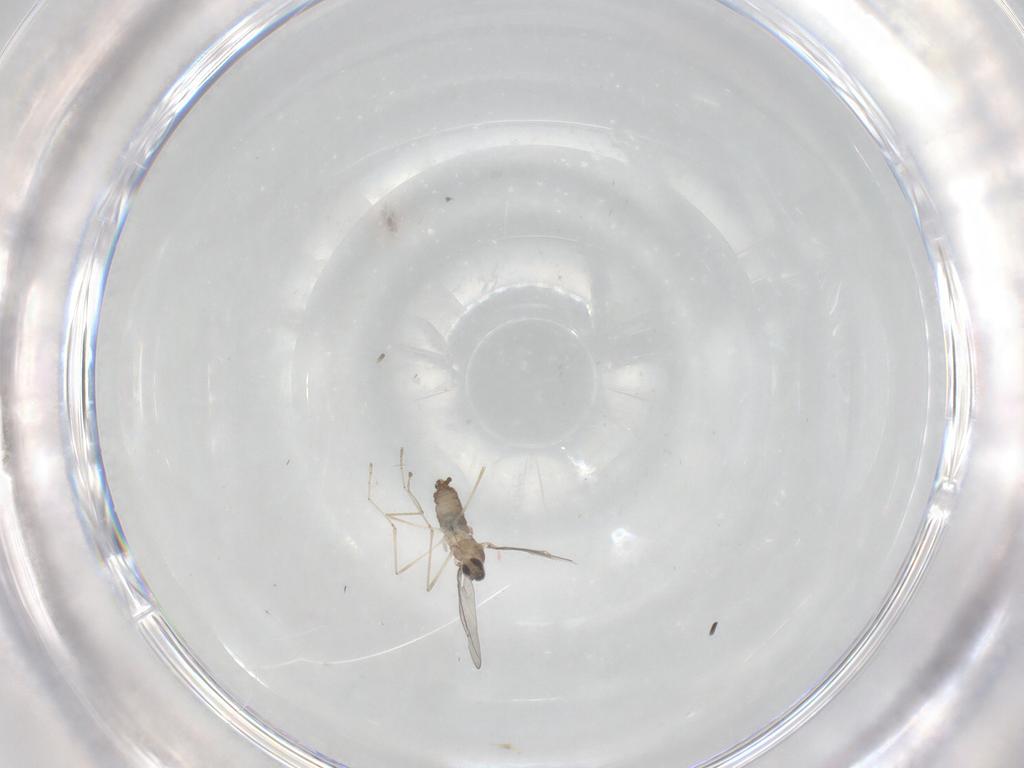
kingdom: Animalia
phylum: Arthropoda
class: Insecta
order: Diptera
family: Cecidomyiidae
